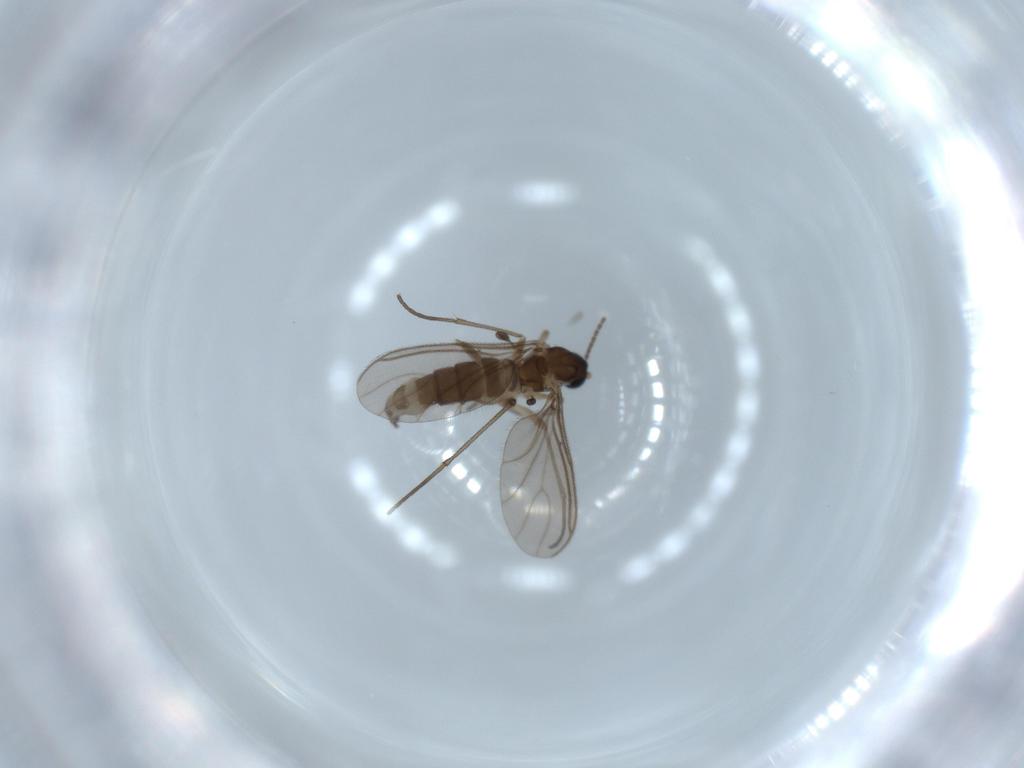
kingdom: Animalia
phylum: Arthropoda
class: Insecta
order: Diptera
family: Sciaridae
